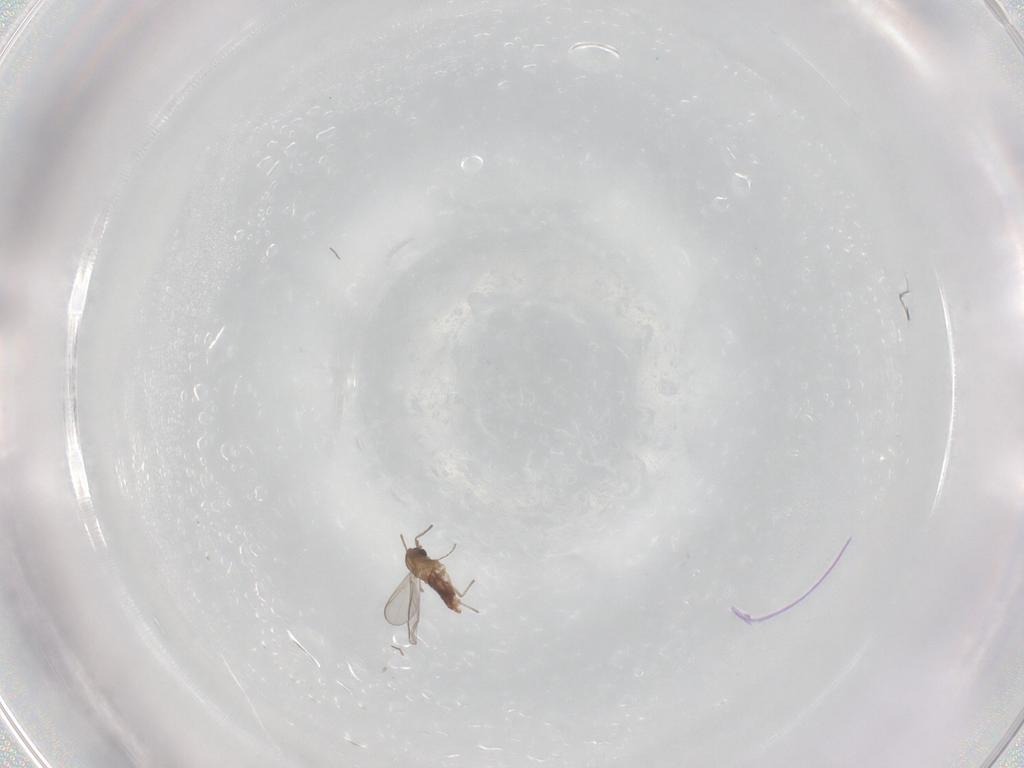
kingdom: Animalia
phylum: Arthropoda
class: Insecta
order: Diptera
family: Chironomidae
